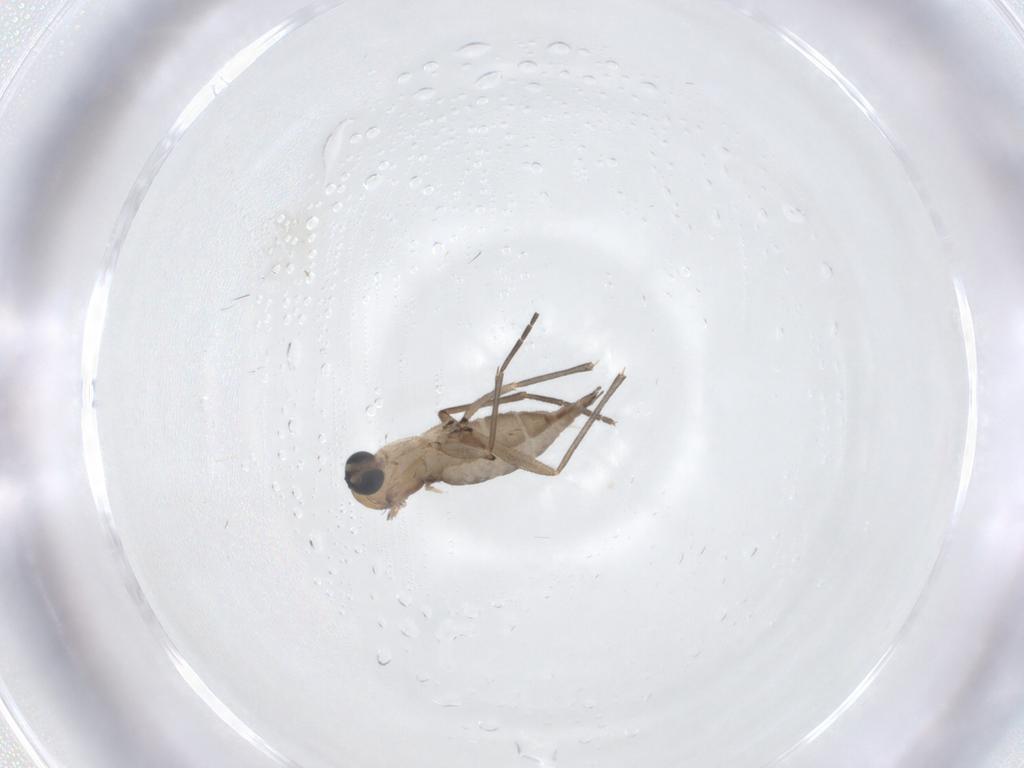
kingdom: Animalia
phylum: Arthropoda
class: Insecta
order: Diptera
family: Sciaridae
